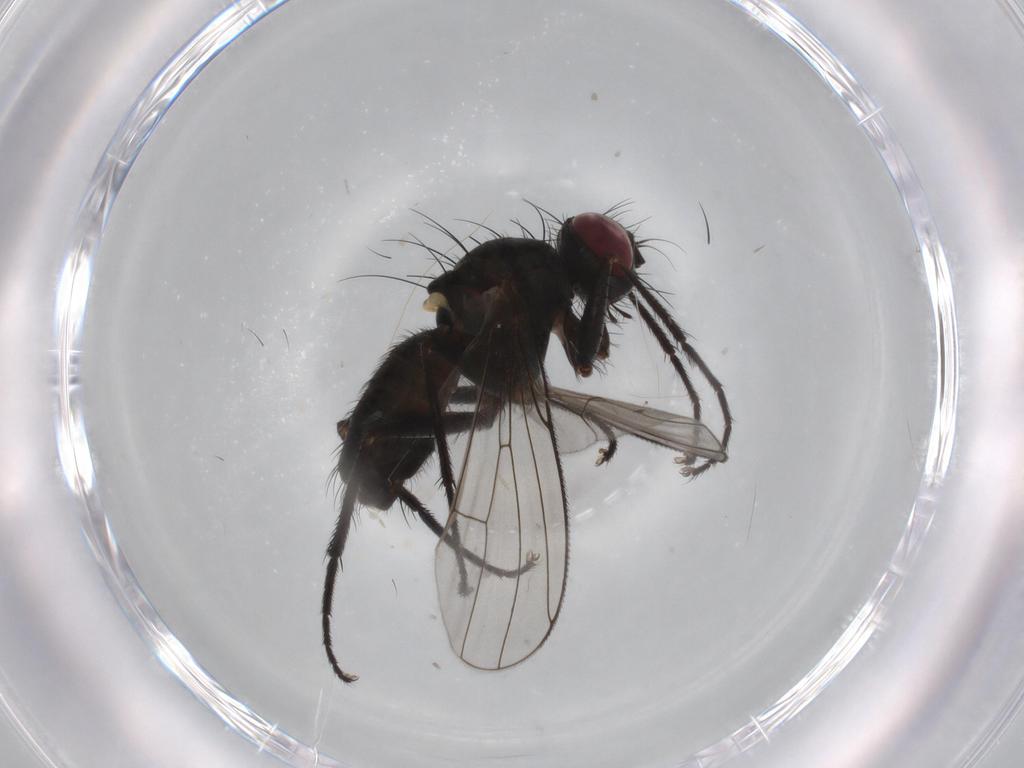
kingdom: Animalia
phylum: Arthropoda
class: Insecta
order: Diptera
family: Muscidae
